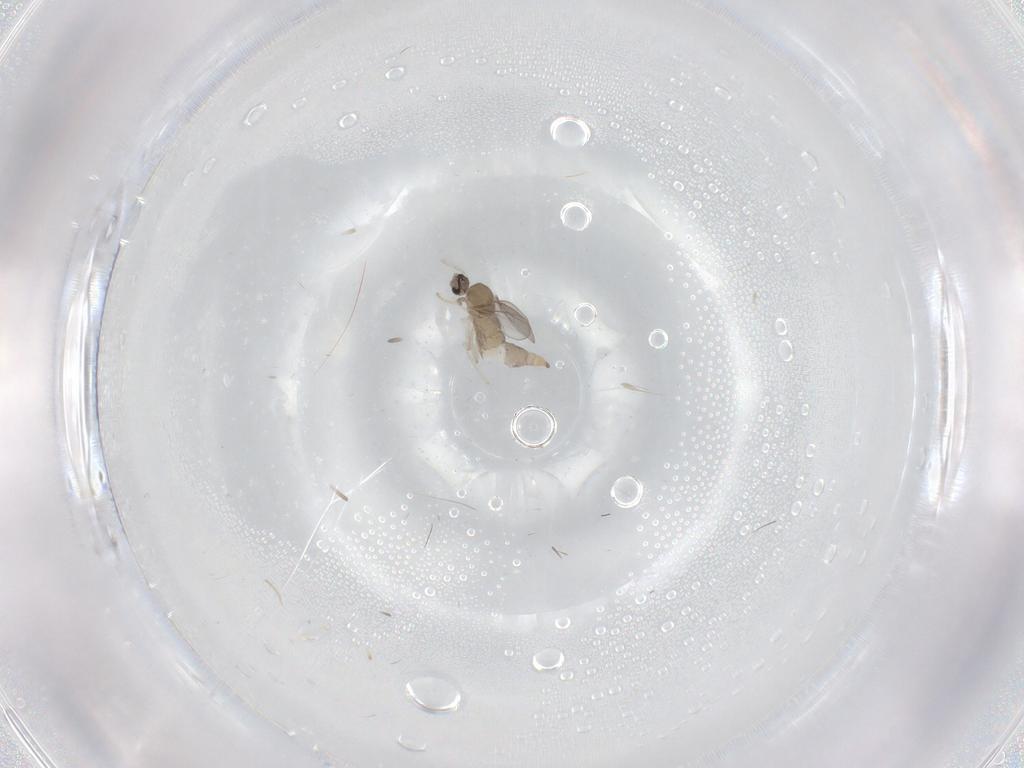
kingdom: Animalia
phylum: Arthropoda
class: Insecta
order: Diptera
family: Cecidomyiidae
